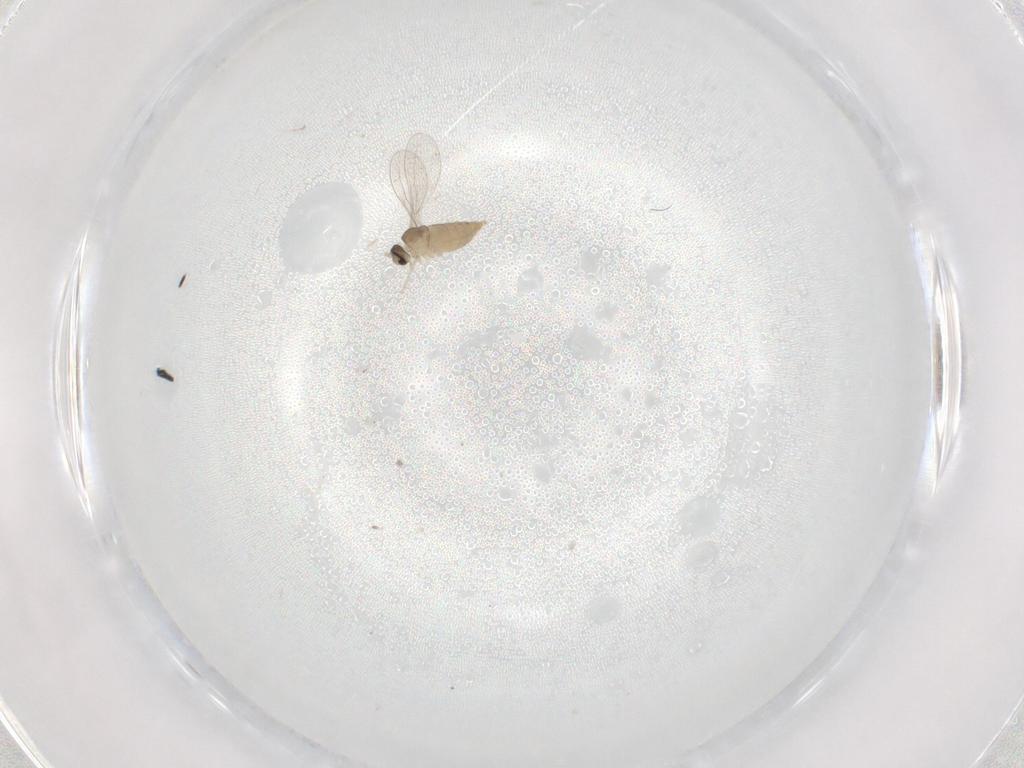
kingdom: Animalia
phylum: Arthropoda
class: Insecta
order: Diptera
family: Cecidomyiidae
